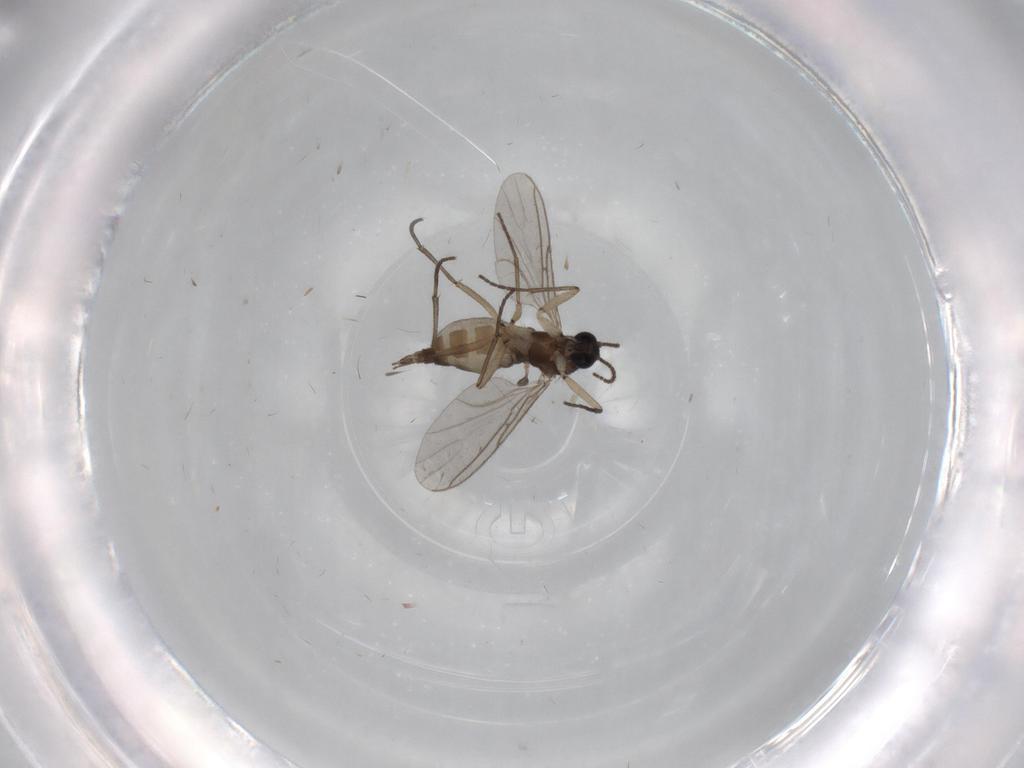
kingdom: Animalia
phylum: Arthropoda
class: Insecta
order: Diptera
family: Sciaridae
